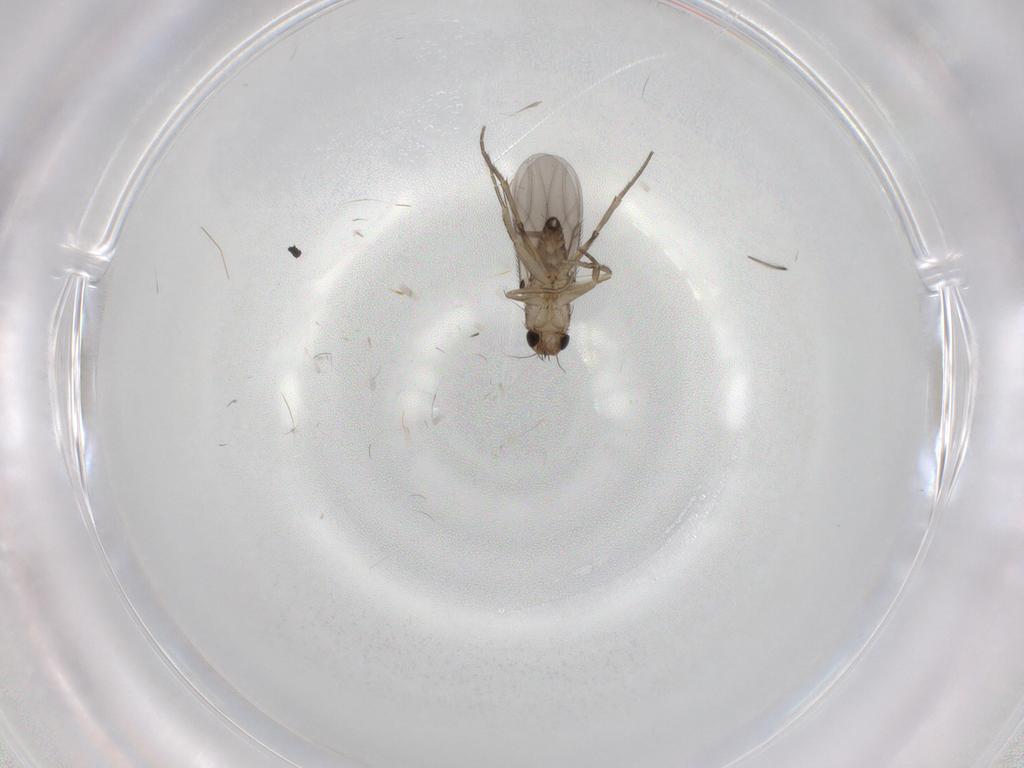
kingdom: Animalia
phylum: Arthropoda
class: Insecta
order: Diptera
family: Phoridae
